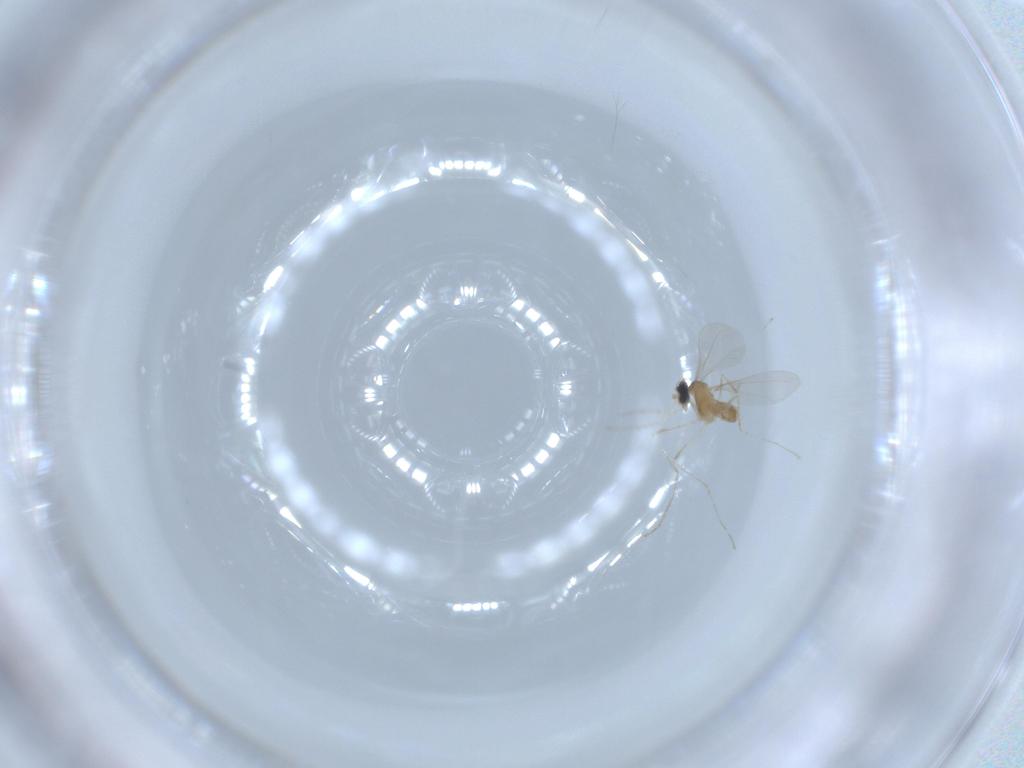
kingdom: Animalia
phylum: Arthropoda
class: Insecta
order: Diptera
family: Cecidomyiidae
